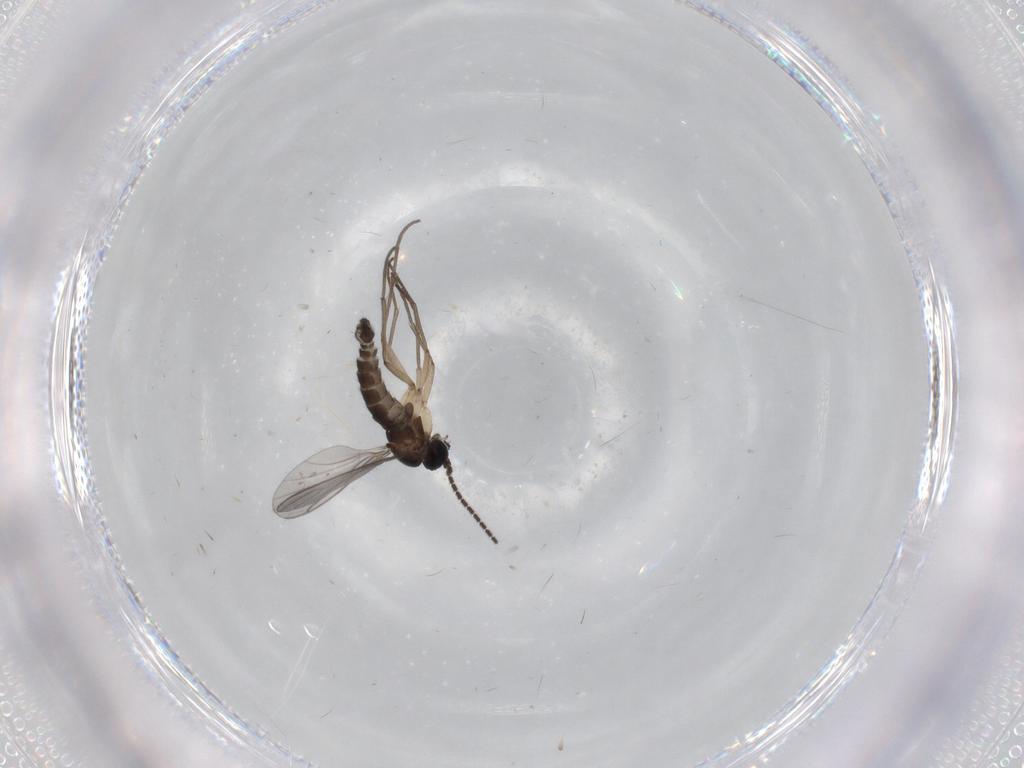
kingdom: Animalia
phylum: Arthropoda
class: Insecta
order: Diptera
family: Sciaridae
